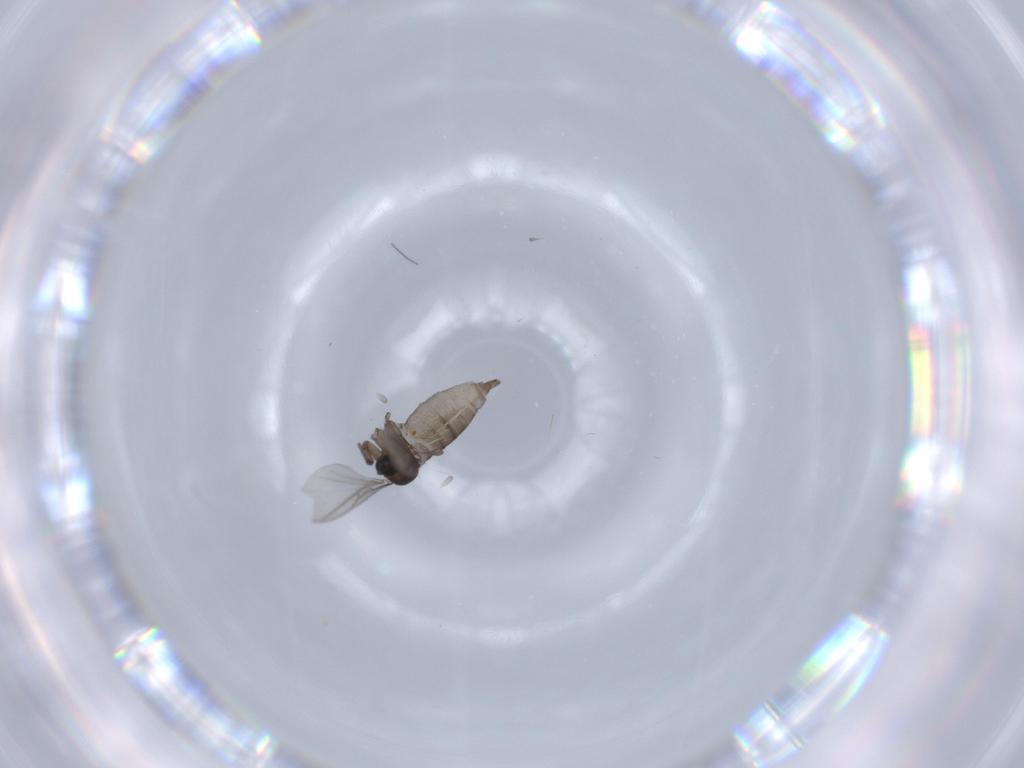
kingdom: Animalia
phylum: Arthropoda
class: Insecta
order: Diptera
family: Sciaridae
